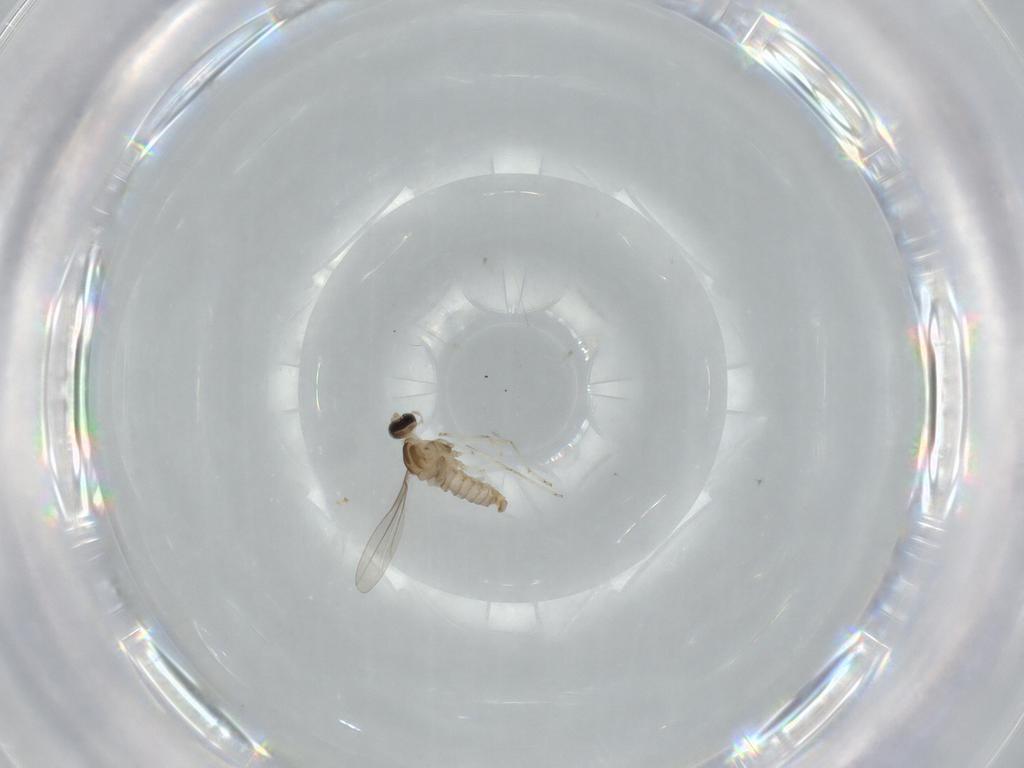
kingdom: Animalia
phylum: Arthropoda
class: Insecta
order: Diptera
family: Cecidomyiidae
